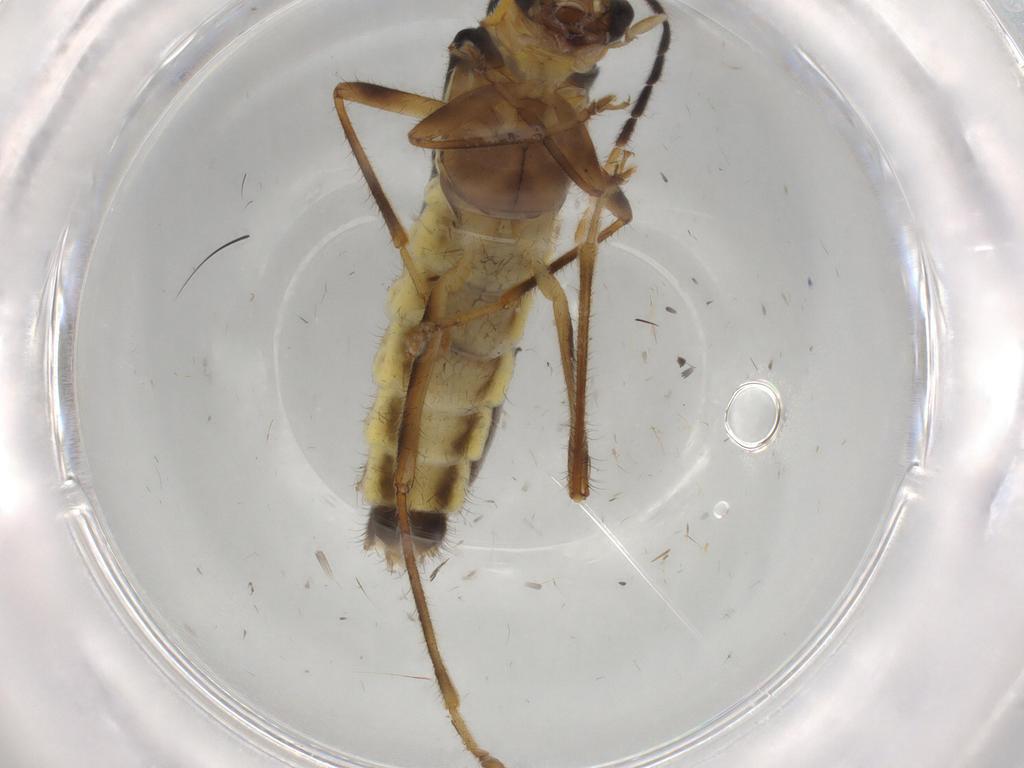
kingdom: Animalia
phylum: Arthropoda
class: Insecta
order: Coleoptera
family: Cantharidae
